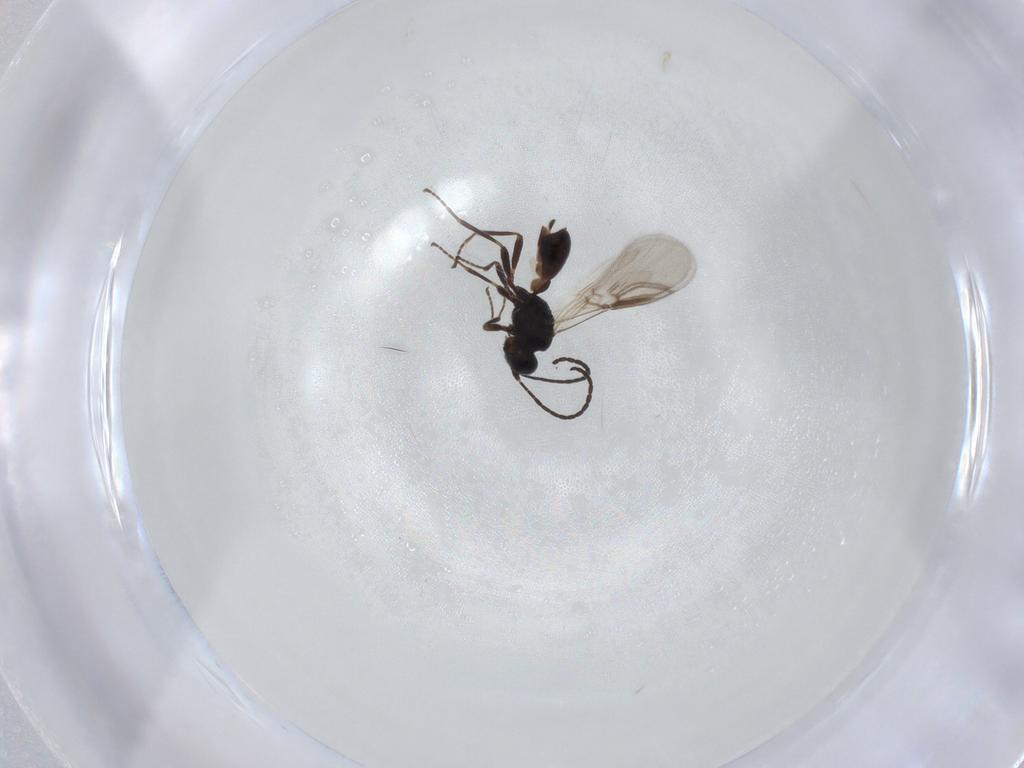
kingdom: Animalia
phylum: Arthropoda
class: Insecta
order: Hymenoptera
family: Braconidae
